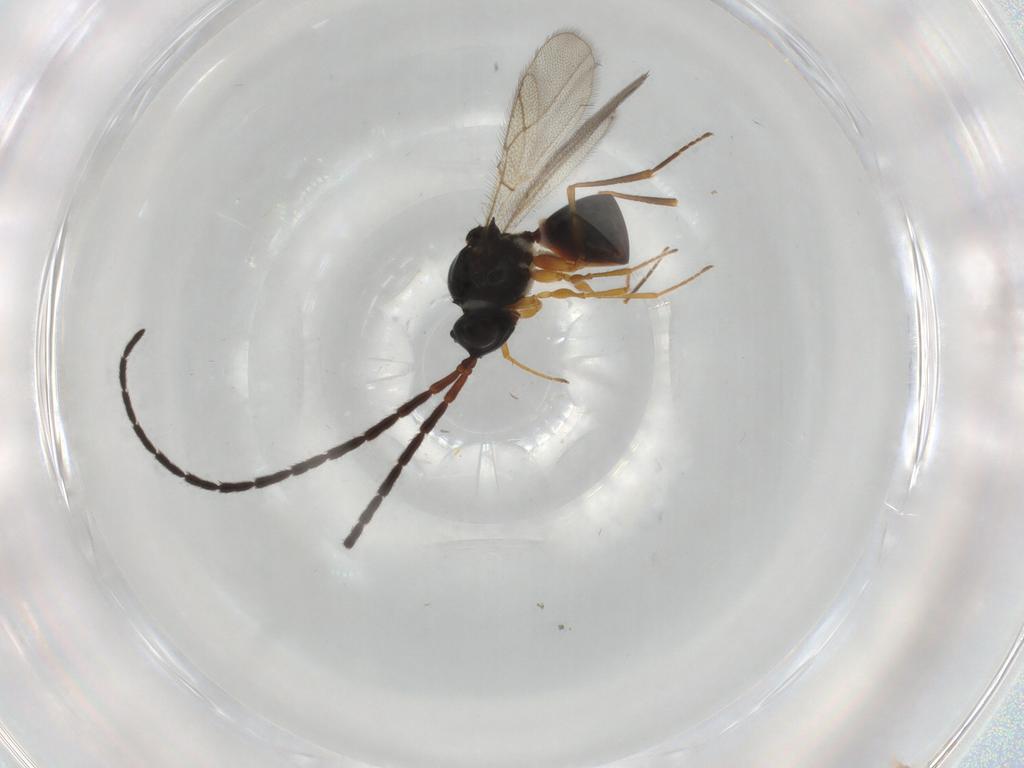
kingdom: Animalia
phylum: Arthropoda
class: Insecta
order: Hymenoptera
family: Figitidae
